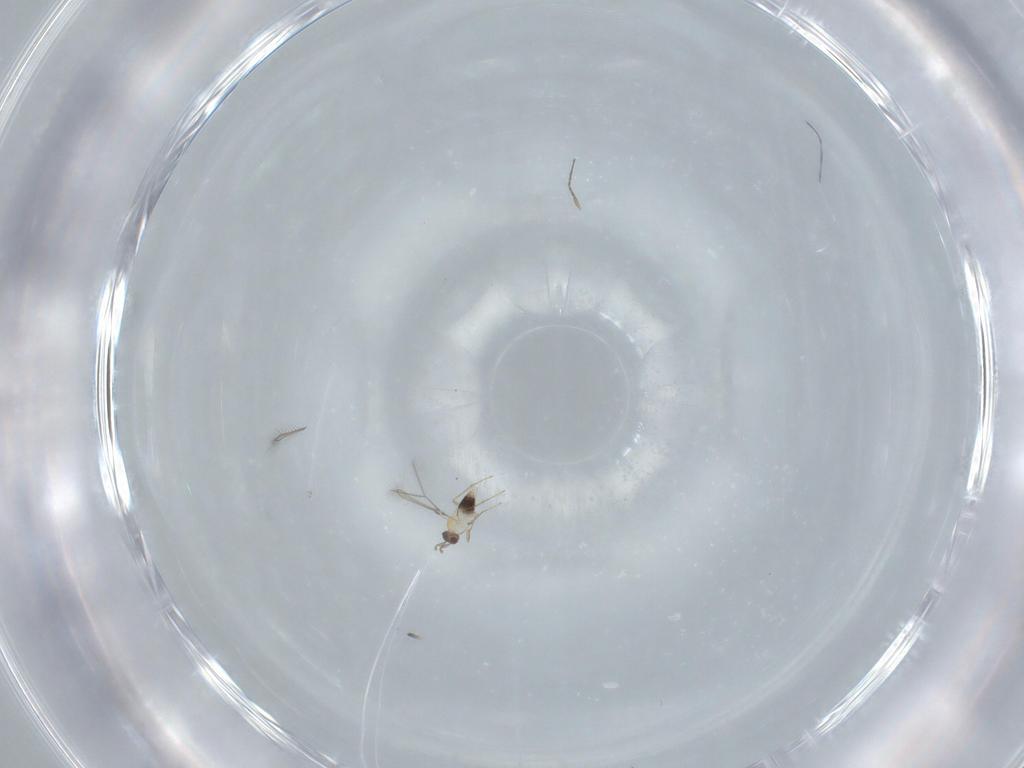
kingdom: Animalia
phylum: Arthropoda
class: Insecta
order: Hymenoptera
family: Mymaridae
